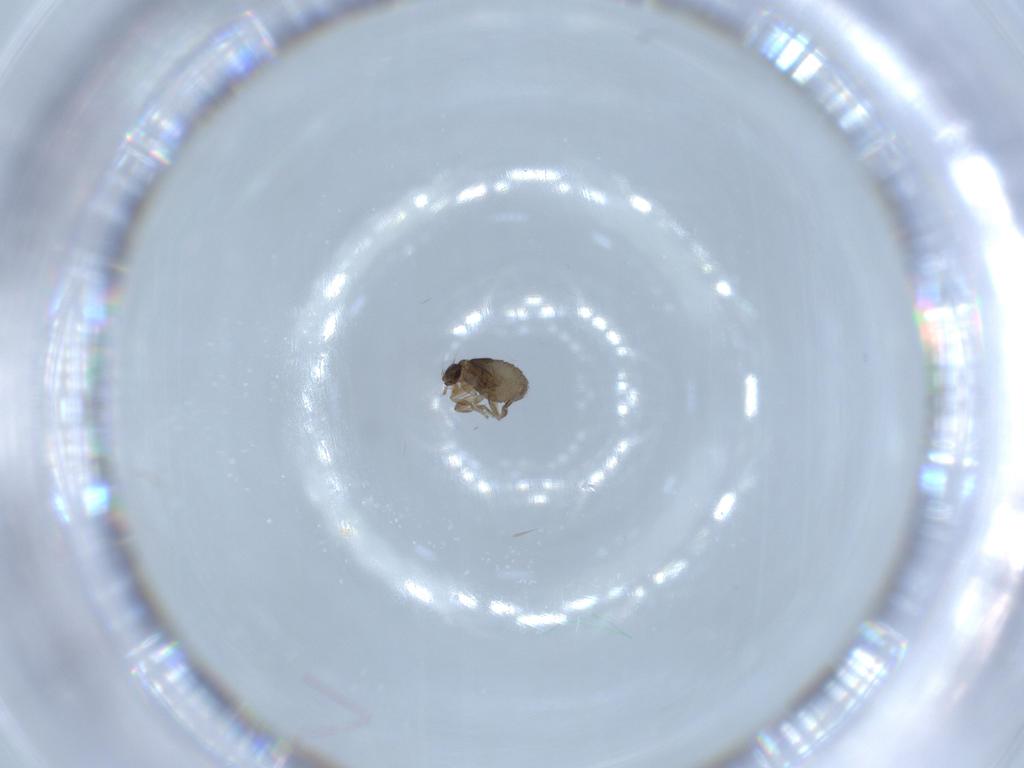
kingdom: Animalia
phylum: Arthropoda
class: Insecta
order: Diptera
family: Phoridae
